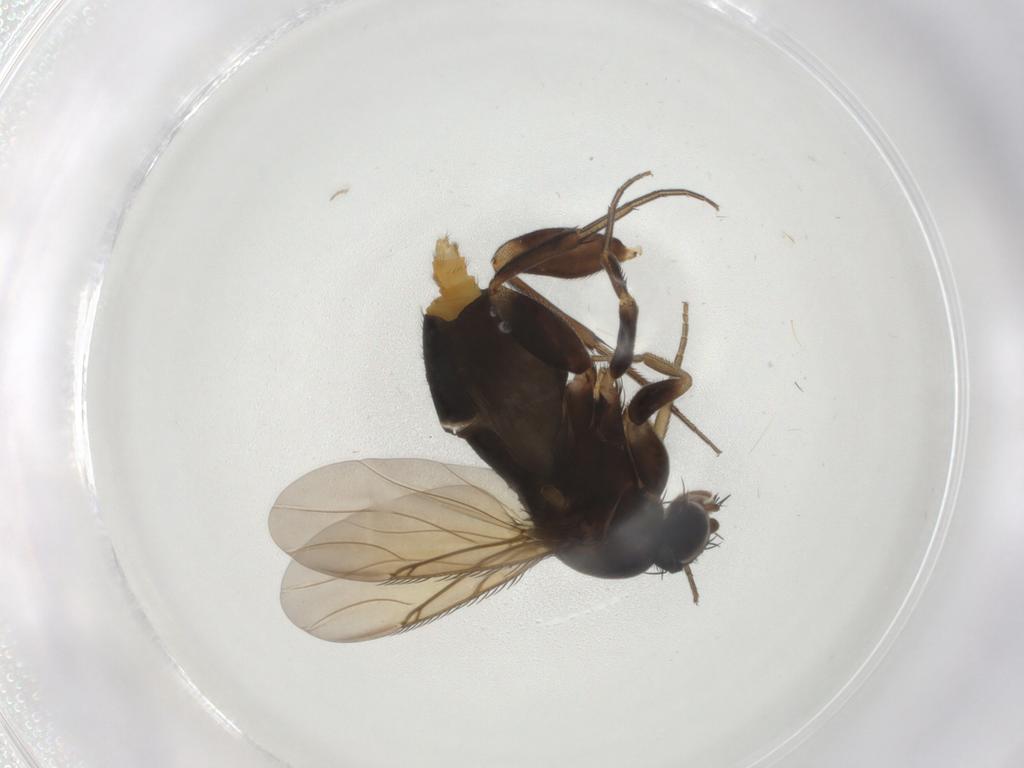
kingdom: Animalia
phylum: Arthropoda
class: Insecta
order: Diptera
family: Phoridae
